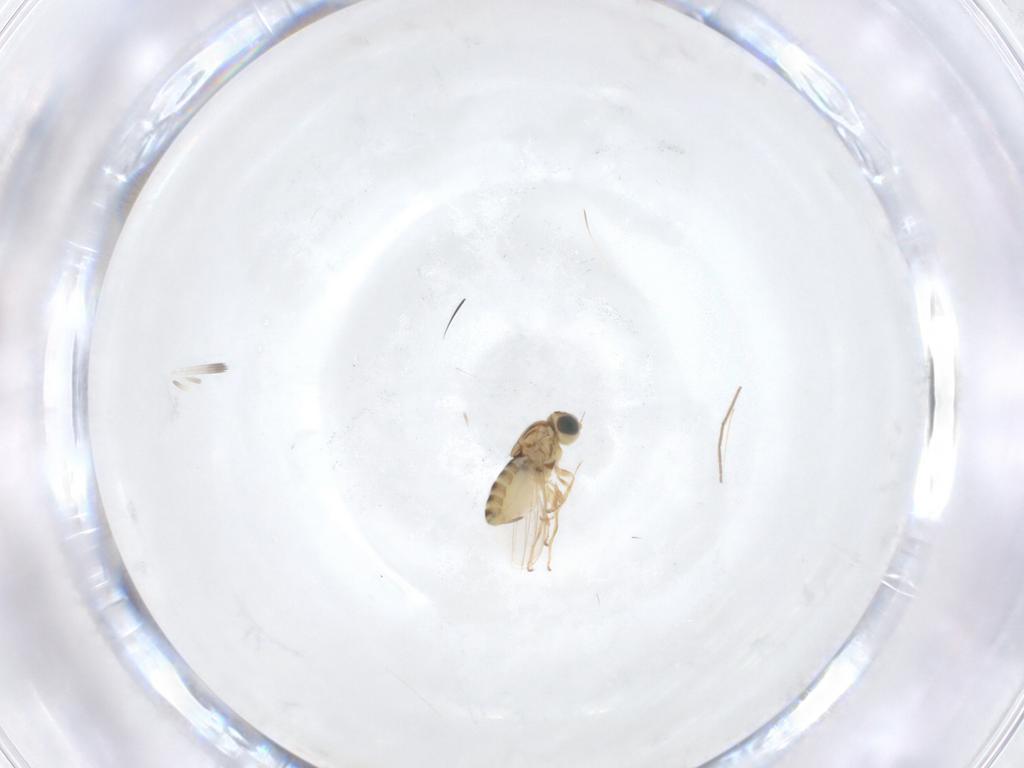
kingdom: Animalia
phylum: Arthropoda
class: Insecta
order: Diptera
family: Chyromyidae
